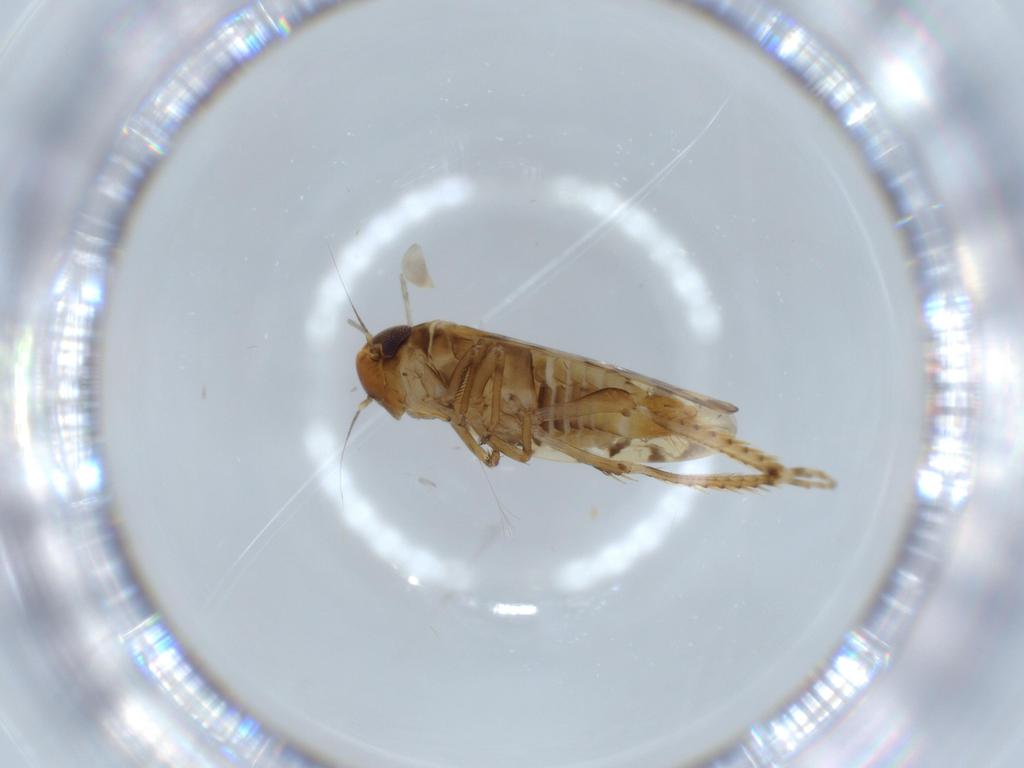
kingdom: Animalia
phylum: Arthropoda
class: Insecta
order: Hemiptera
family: Cicadellidae
